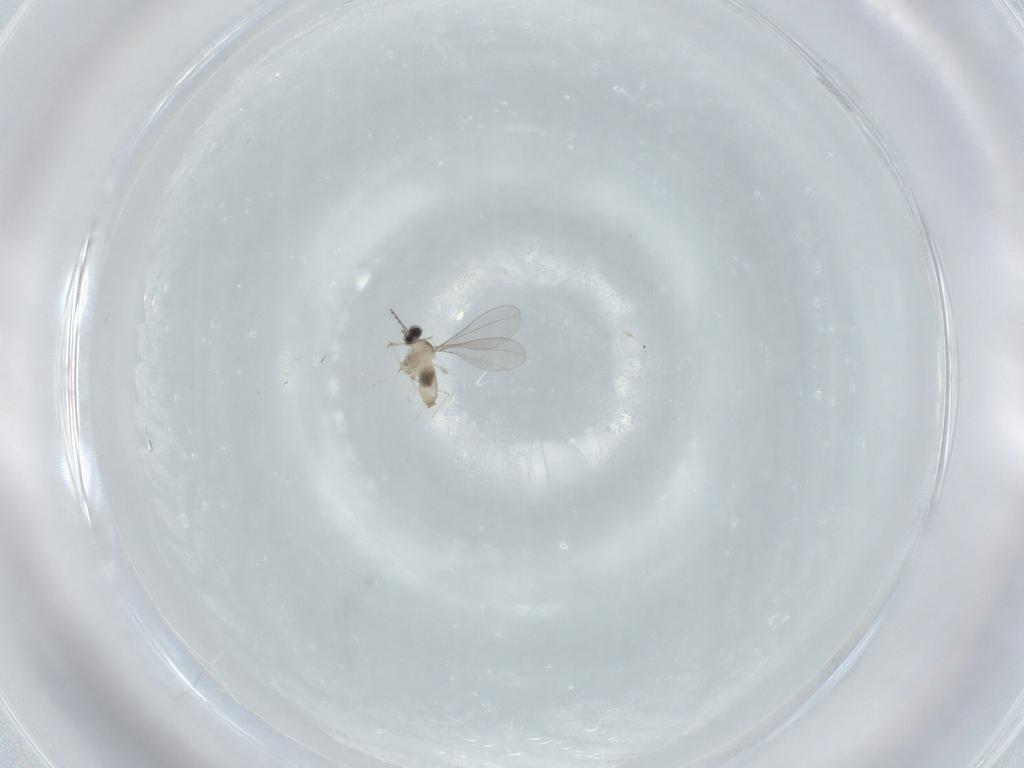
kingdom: Animalia
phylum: Arthropoda
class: Insecta
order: Diptera
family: Cecidomyiidae
